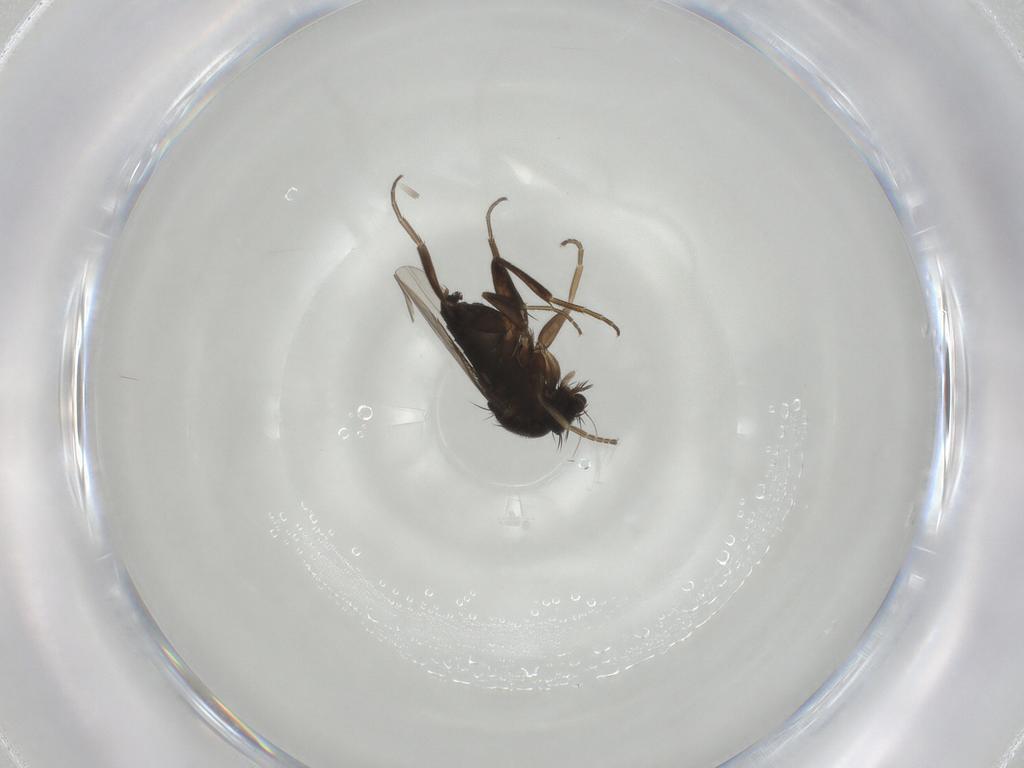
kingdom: Animalia
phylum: Arthropoda
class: Insecta
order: Diptera
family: Phoridae
